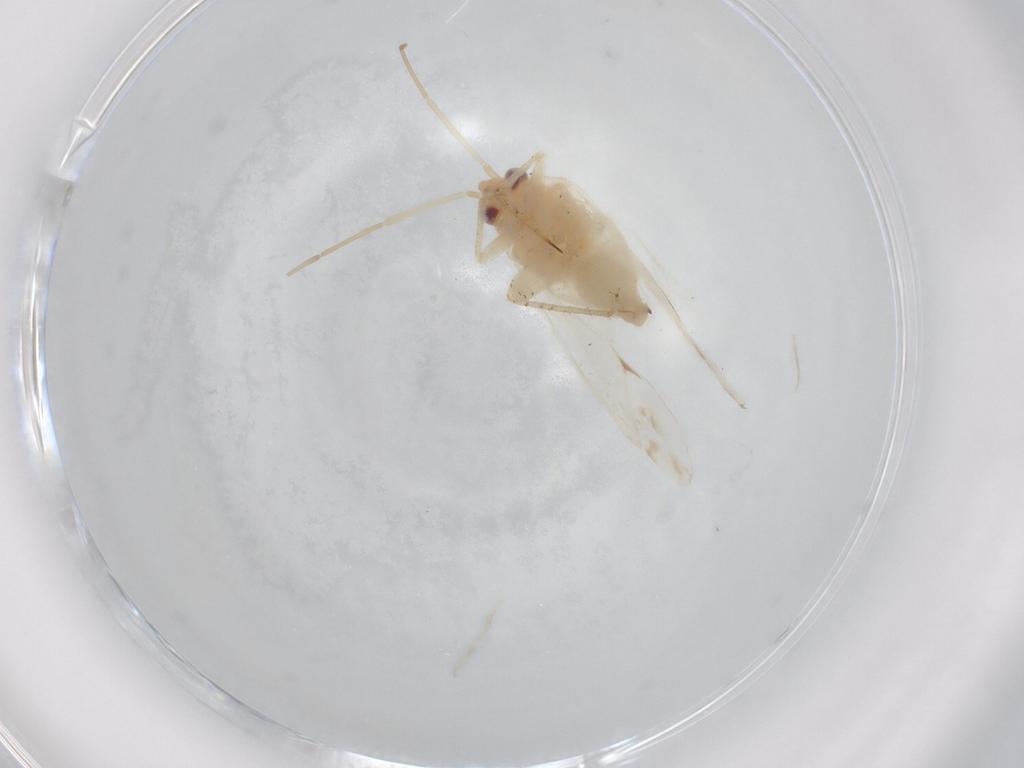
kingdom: Animalia
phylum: Arthropoda
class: Insecta
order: Hemiptera
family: Miridae
